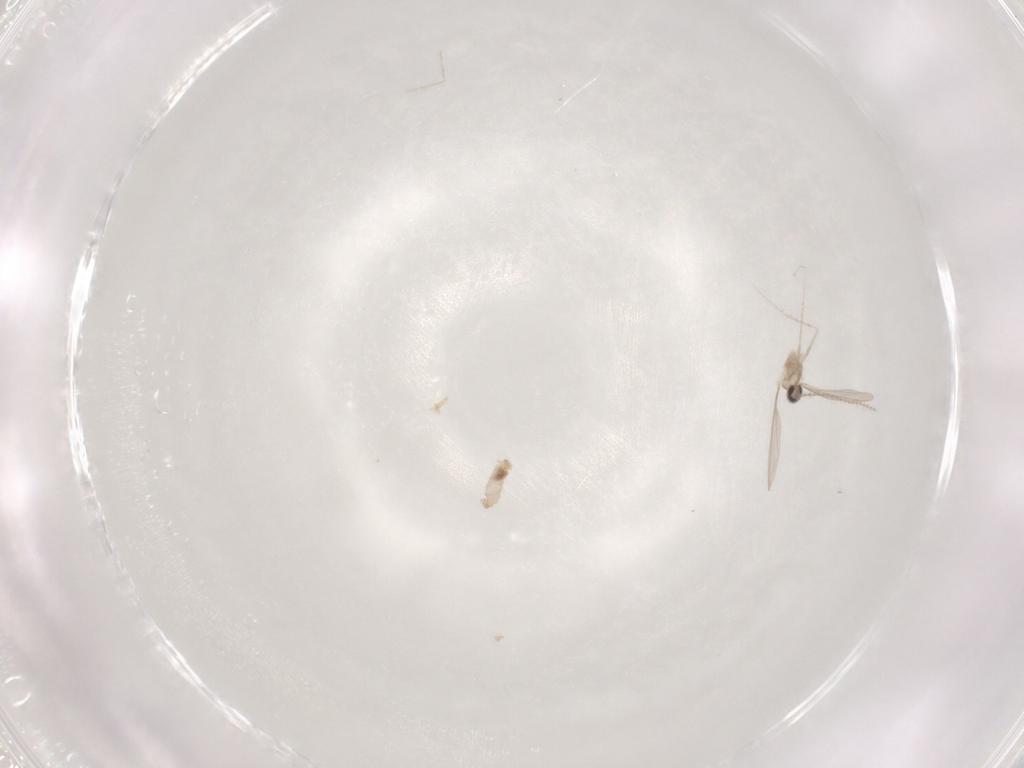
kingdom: Animalia
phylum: Arthropoda
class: Insecta
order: Diptera
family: Cecidomyiidae
